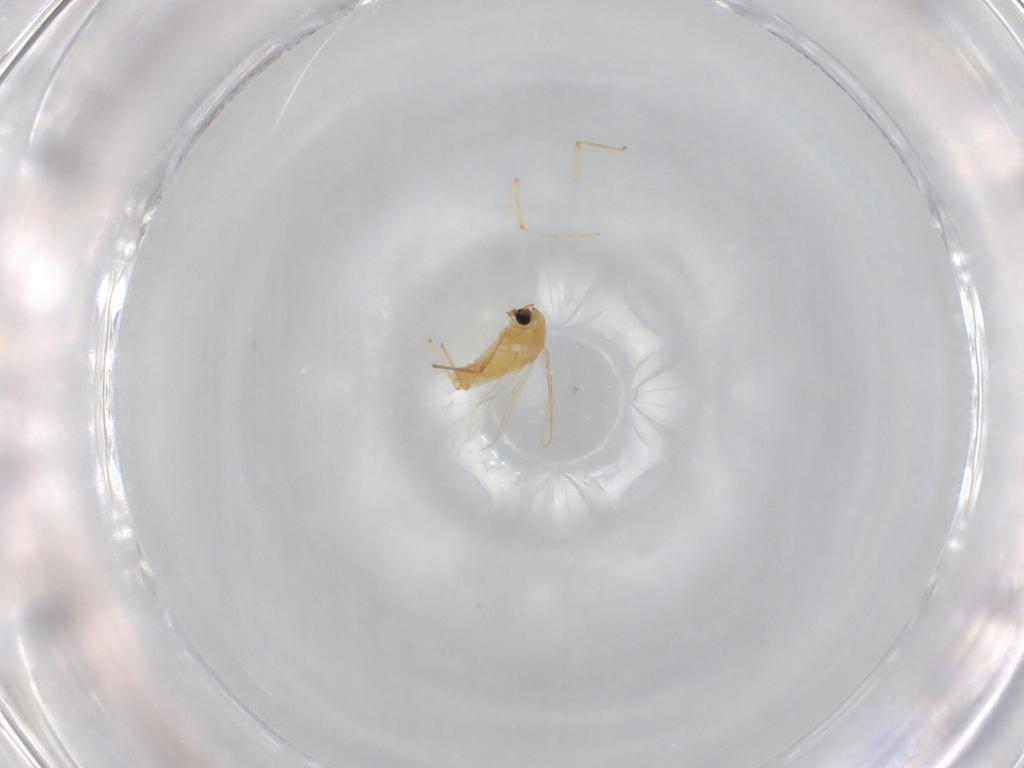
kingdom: Animalia
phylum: Arthropoda
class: Insecta
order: Diptera
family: Chironomidae
